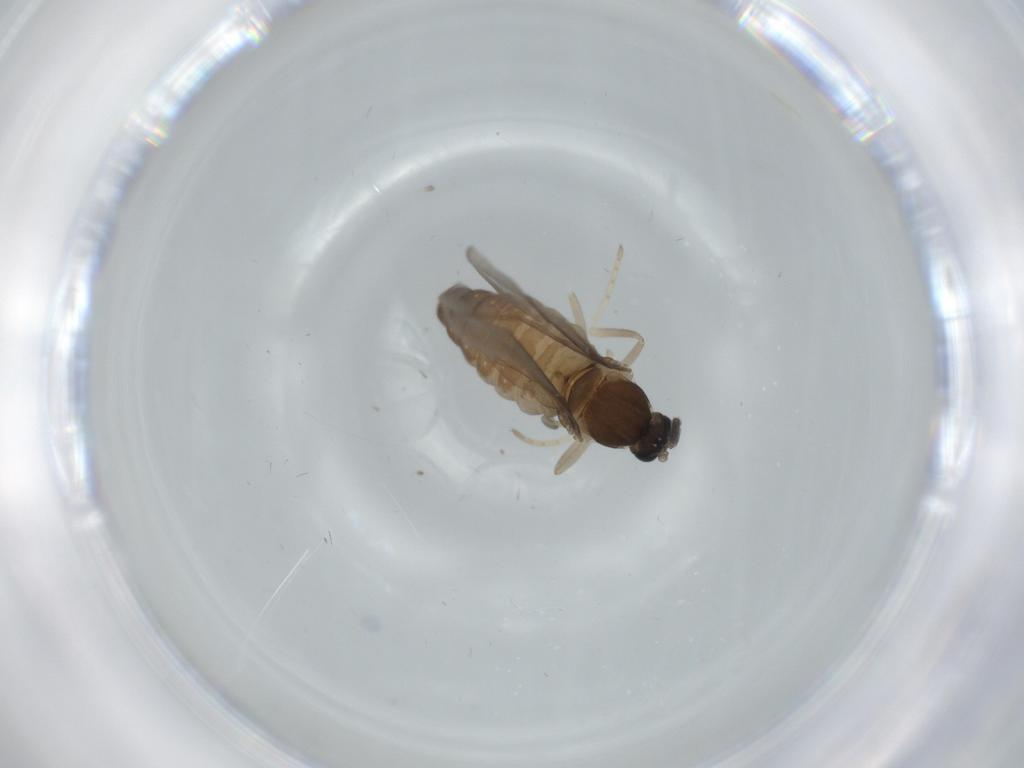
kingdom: Animalia
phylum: Arthropoda
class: Insecta
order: Diptera
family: Cecidomyiidae
